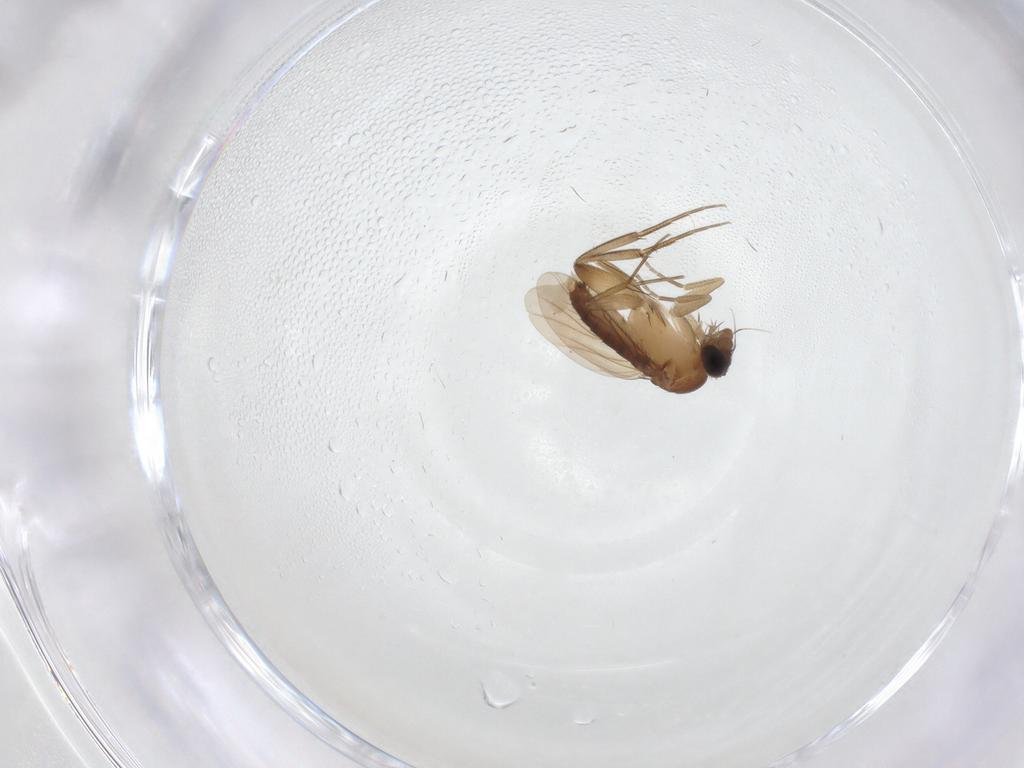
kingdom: Animalia
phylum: Arthropoda
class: Insecta
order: Diptera
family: Phoridae
